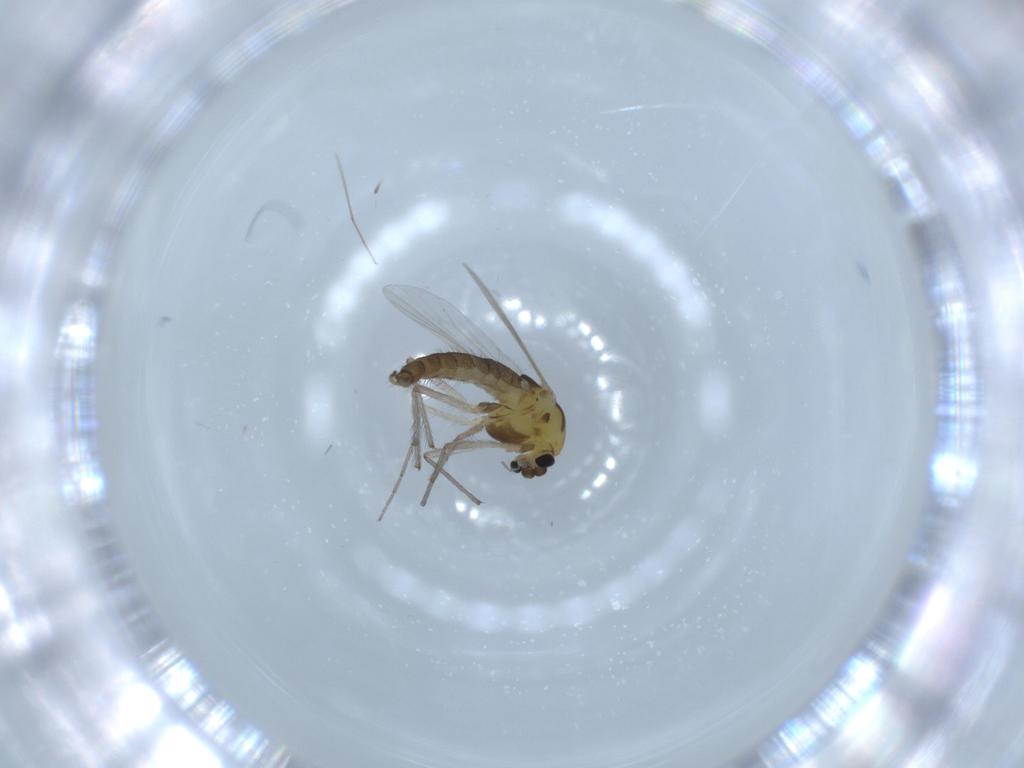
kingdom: Animalia
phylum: Arthropoda
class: Insecta
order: Diptera
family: Chironomidae
